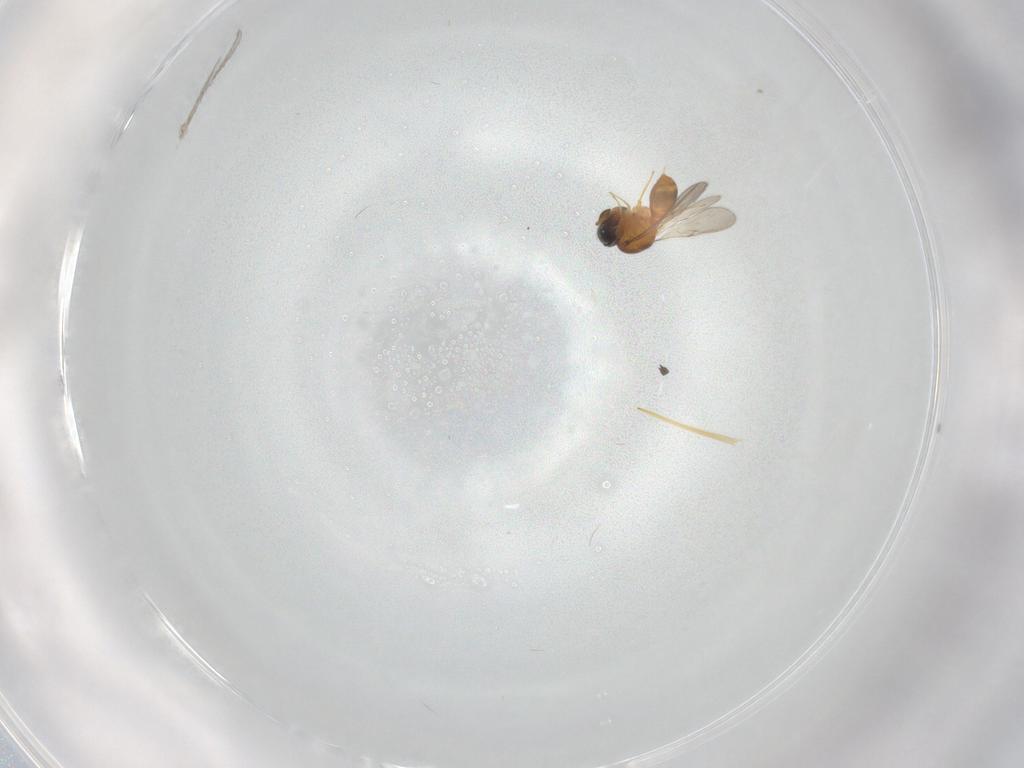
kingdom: Animalia
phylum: Arthropoda
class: Insecta
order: Hymenoptera
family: Scelionidae
